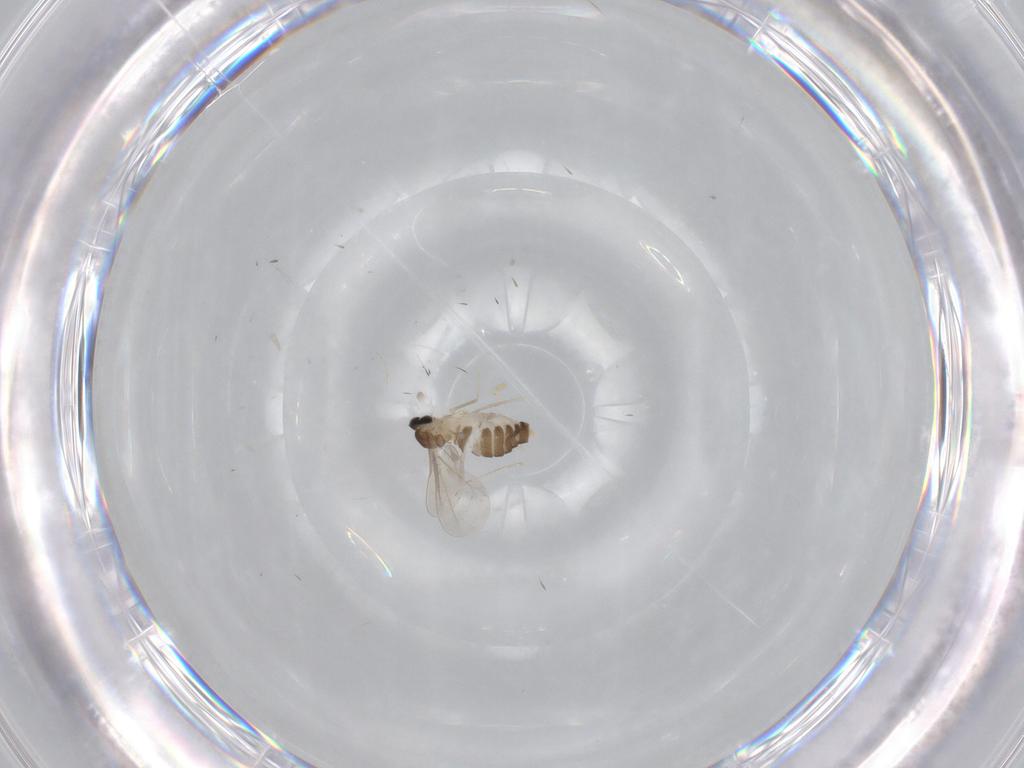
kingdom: Animalia
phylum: Arthropoda
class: Insecta
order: Diptera
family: Cecidomyiidae
